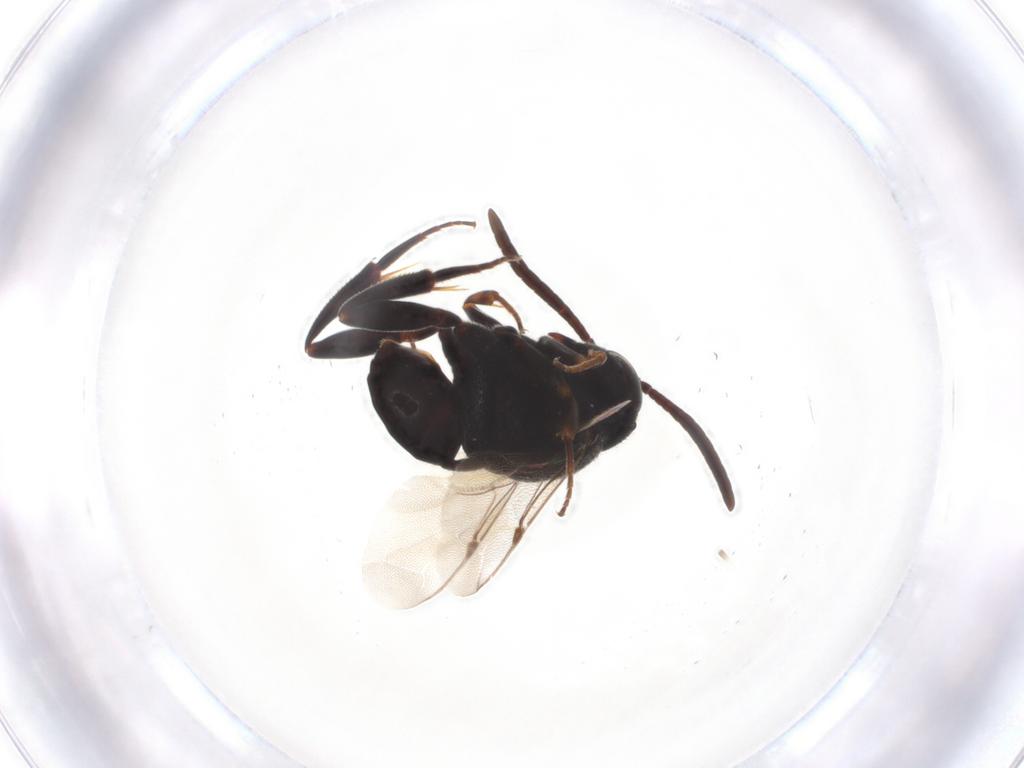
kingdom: Animalia
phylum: Arthropoda
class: Insecta
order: Hymenoptera
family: Evaniidae
